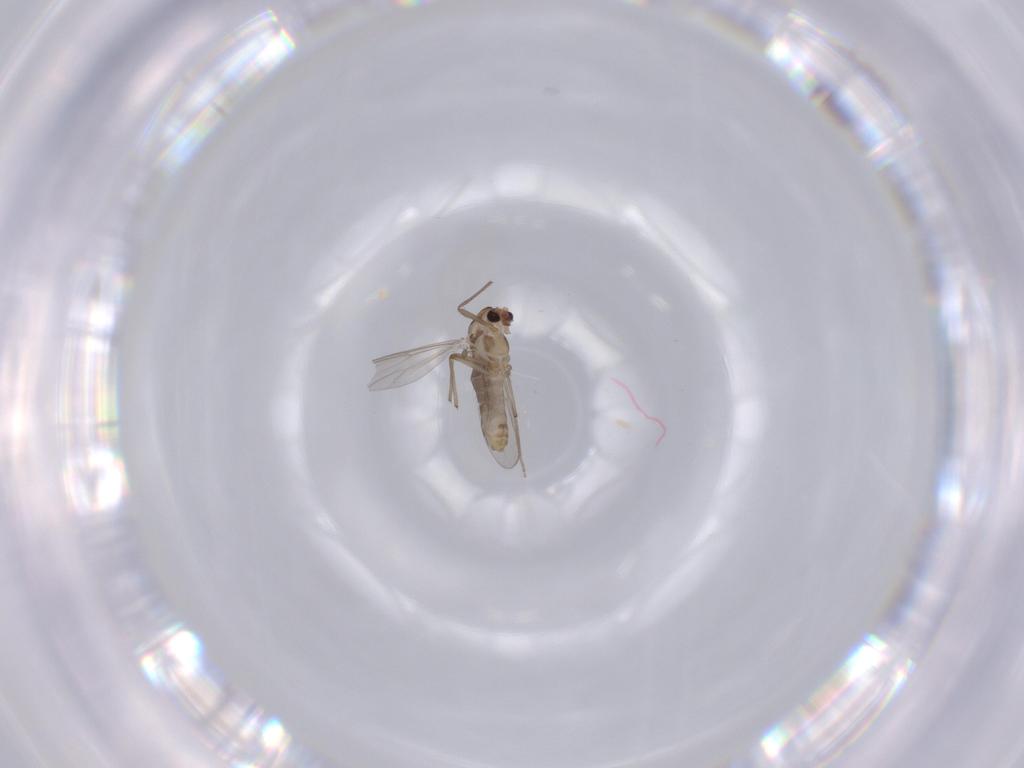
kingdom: Animalia
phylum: Arthropoda
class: Insecta
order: Diptera
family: Chironomidae
